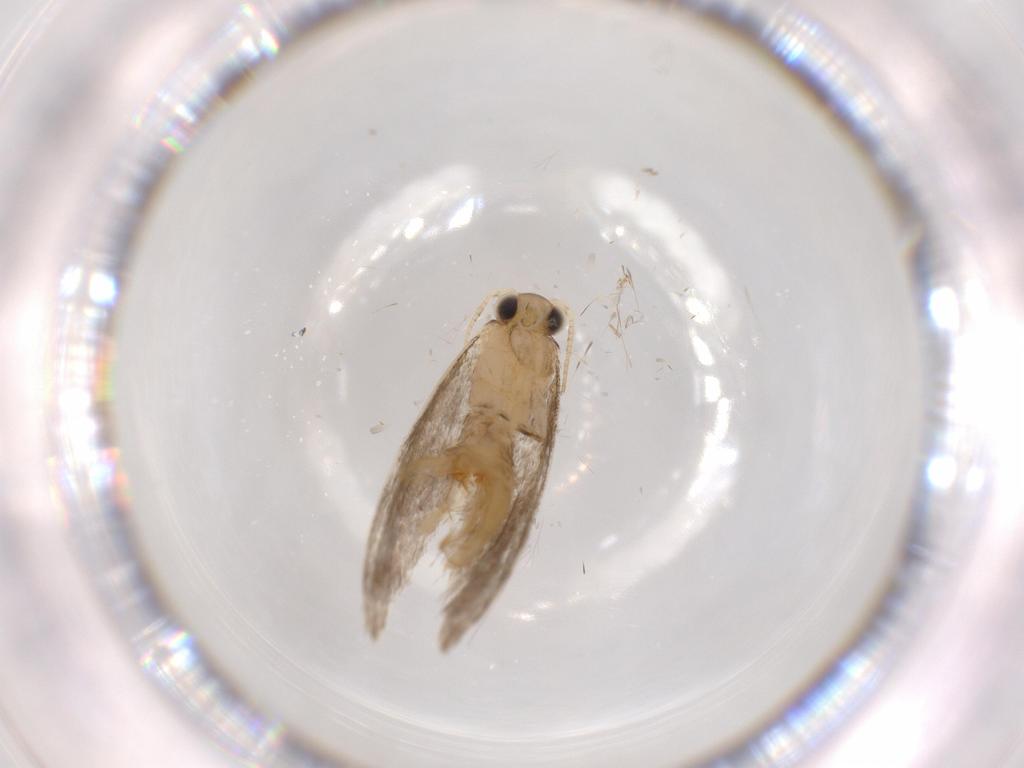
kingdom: Animalia
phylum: Arthropoda
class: Insecta
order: Lepidoptera
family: Tineidae
